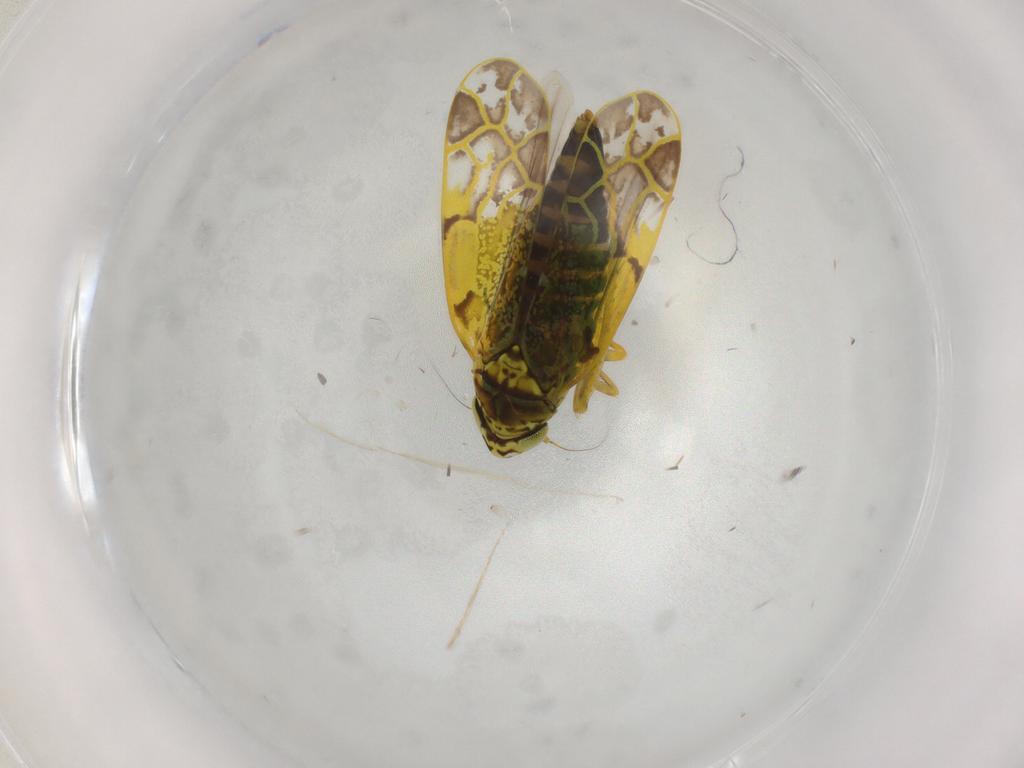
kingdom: Animalia
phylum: Arthropoda
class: Insecta
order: Hemiptera
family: Cicadellidae
